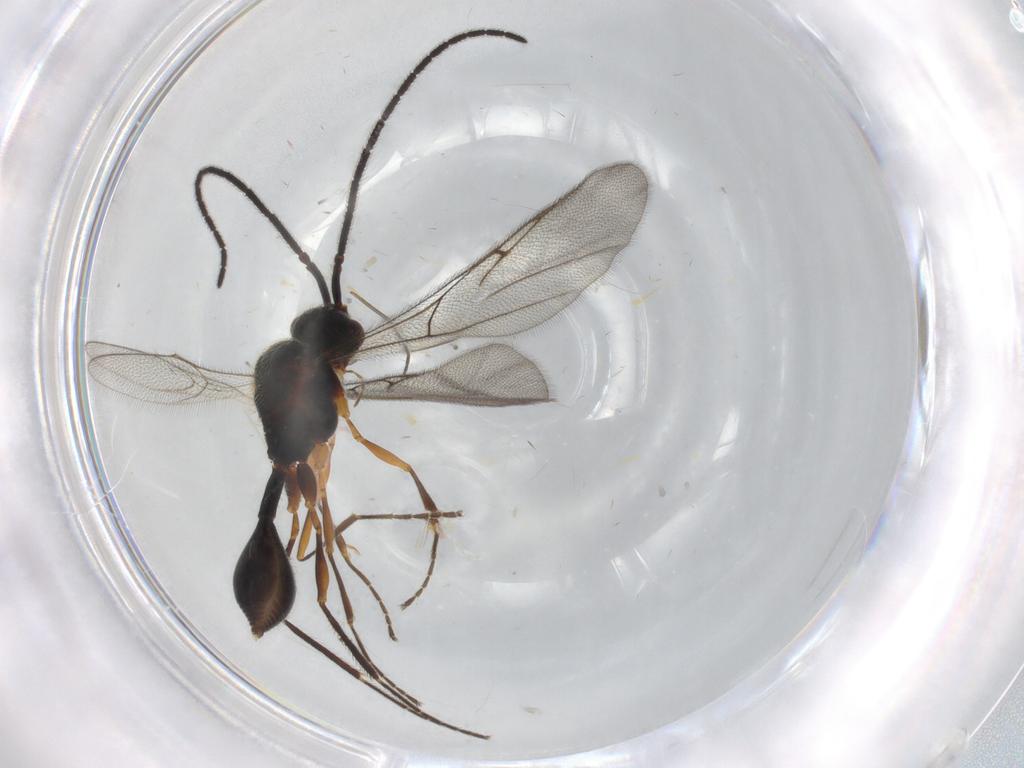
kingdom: Animalia
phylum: Arthropoda
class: Insecta
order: Hymenoptera
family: Diapriidae
